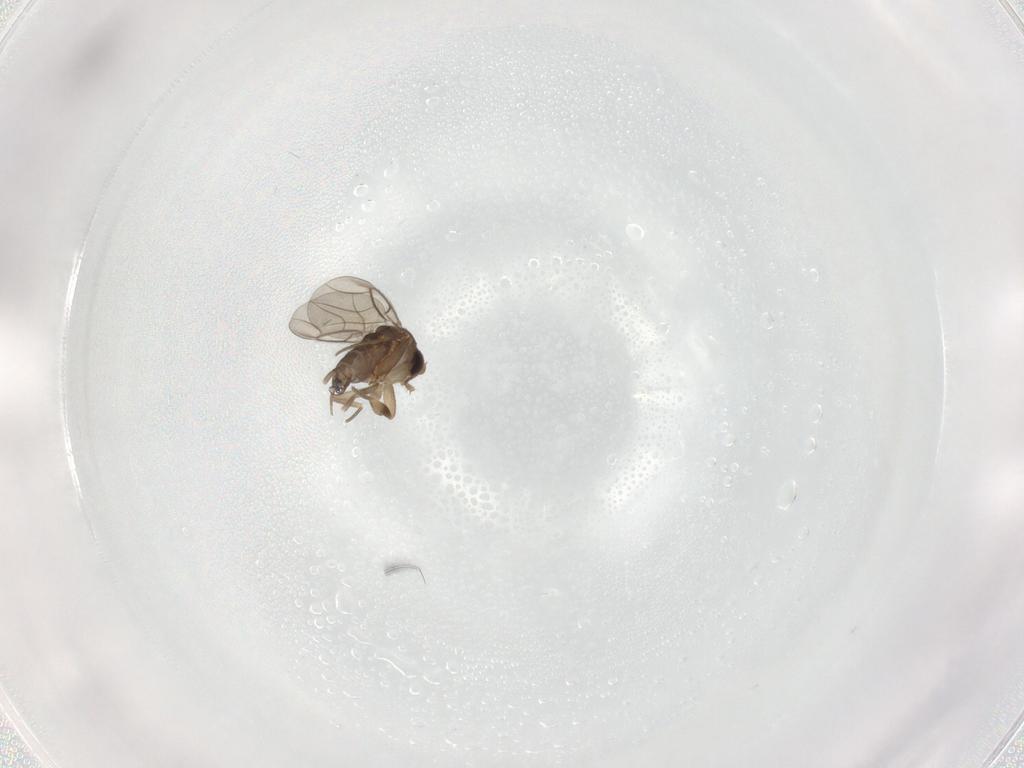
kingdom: Animalia
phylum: Arthropoda
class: Insecta
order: Diptera
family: Phoridae
